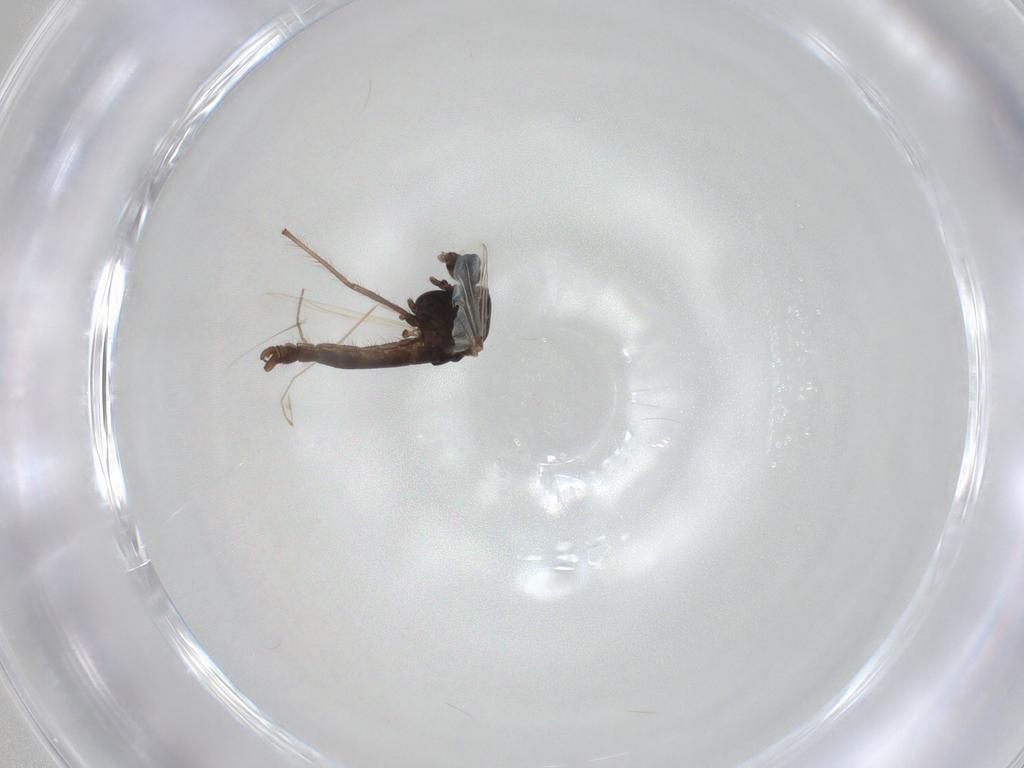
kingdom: Animalia
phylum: Arthropoda
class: Insecta
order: Diptera
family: Chironomidae
